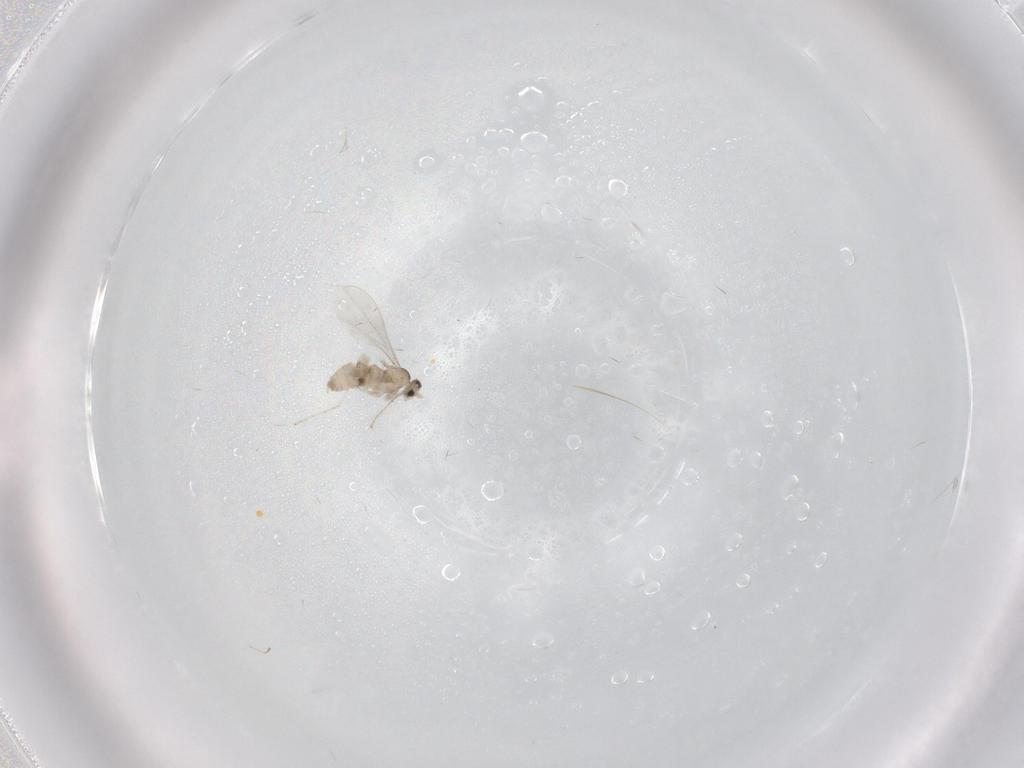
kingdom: Animalia
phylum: Arthropoda
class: Insecta
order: Diptera
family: Cecidomyiidae
